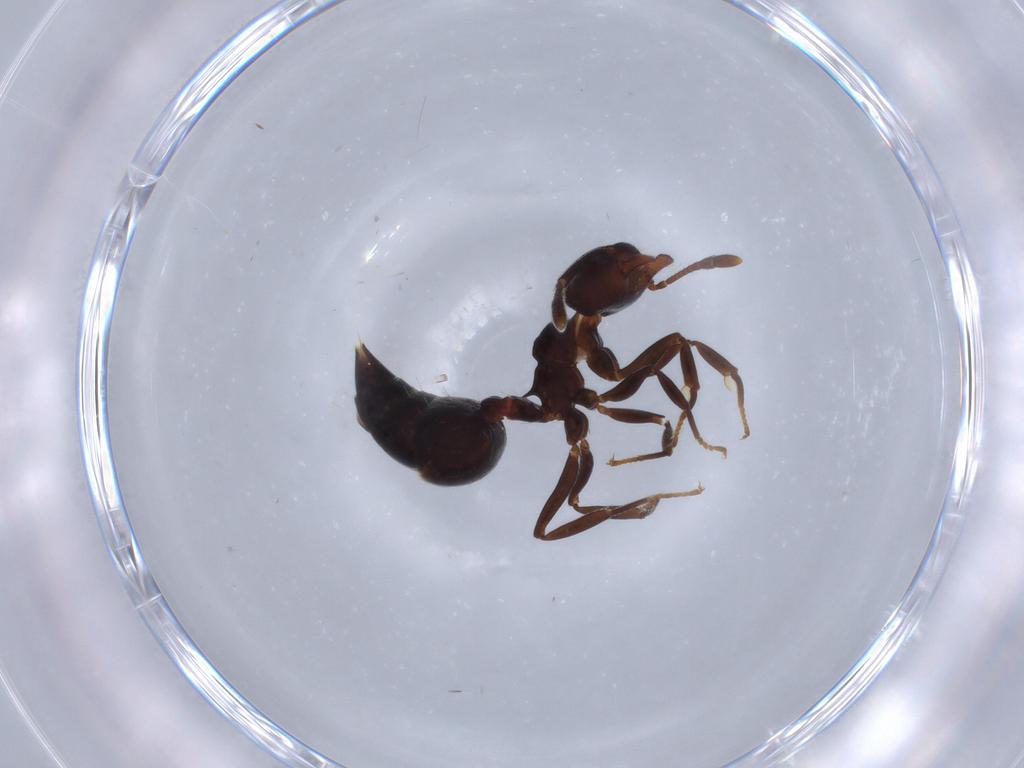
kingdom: Animalia
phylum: Arthropoda
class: Insecta
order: Hymenoptera
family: Formicidae
